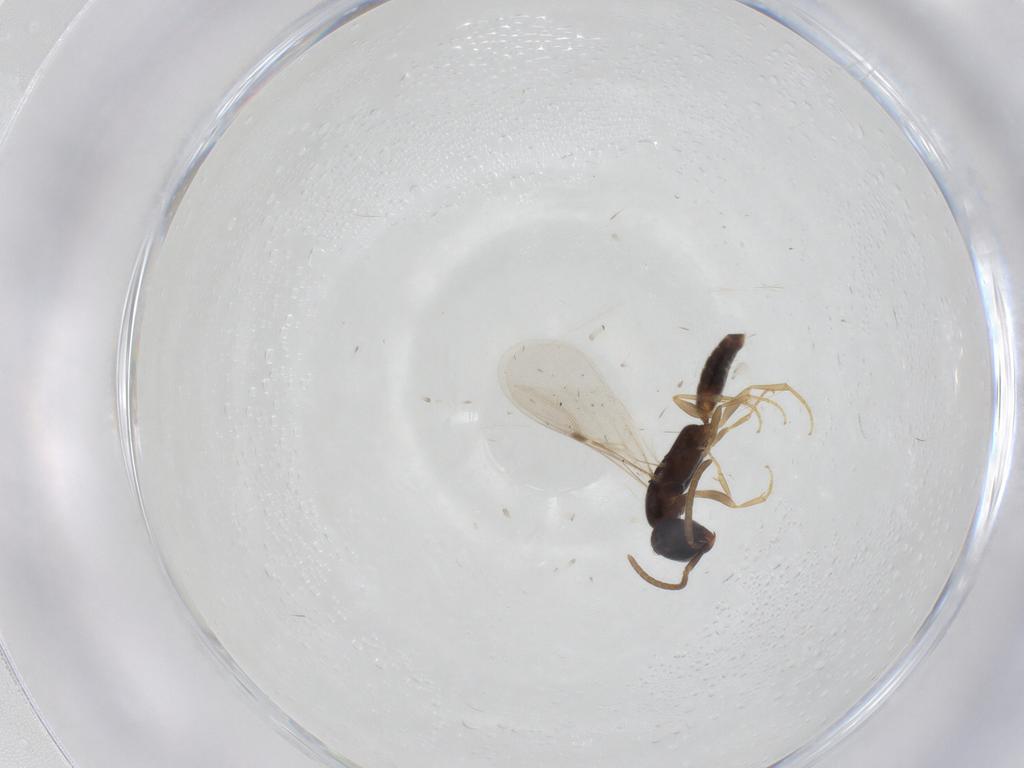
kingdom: Animalia
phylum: Arthropoda
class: Insecta
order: Hymenoptera
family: Bethylidae
